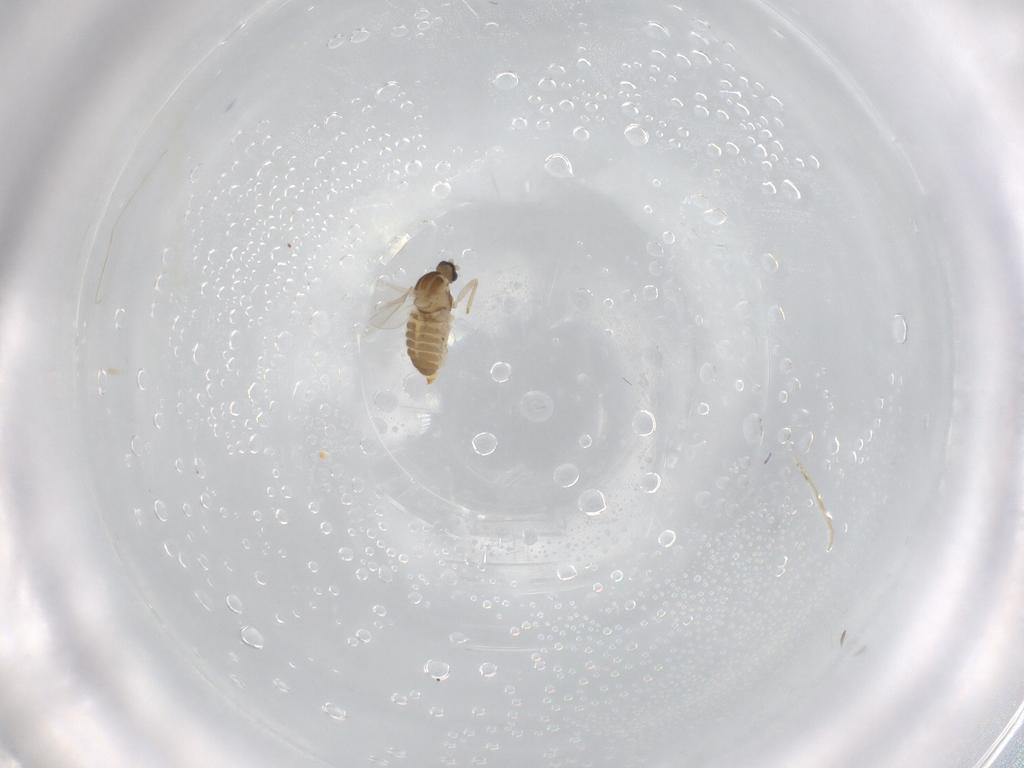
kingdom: Animalia
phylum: Arthropoda
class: Insecta
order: Diptera
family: Cecidomyiidae
